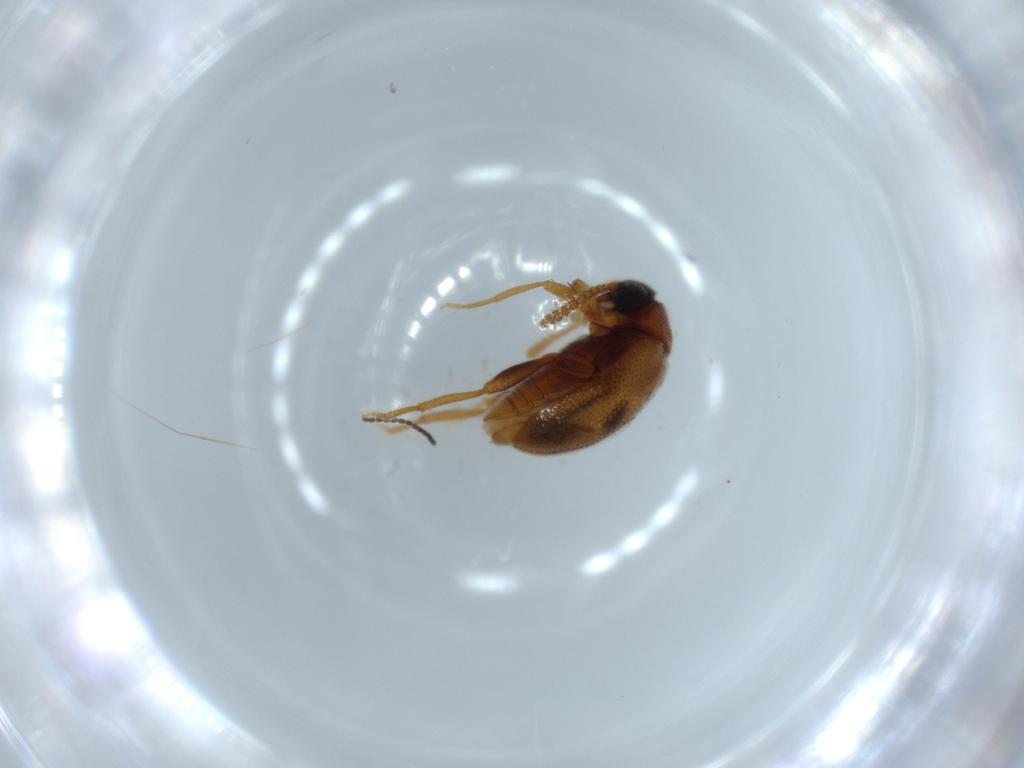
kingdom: Animalia
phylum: Arthropoda
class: Insecta
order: Coleoptera
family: Aderidae
